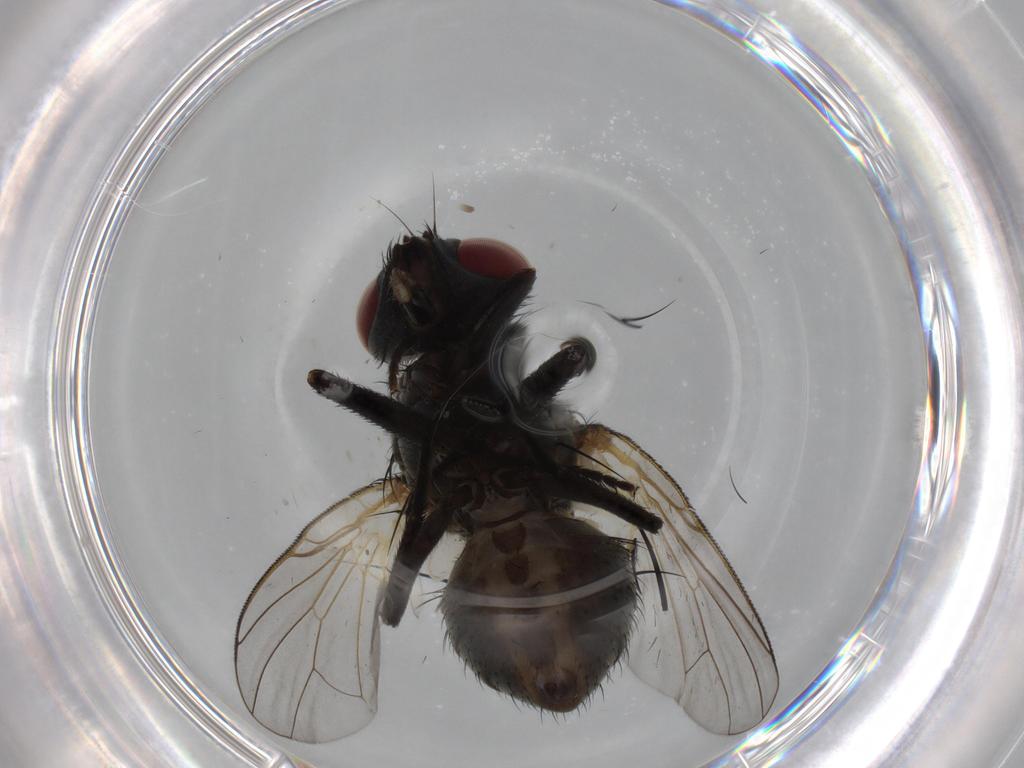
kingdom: Animalia
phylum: Arthropoda
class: Insecta
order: Diptera
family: Muscidae
